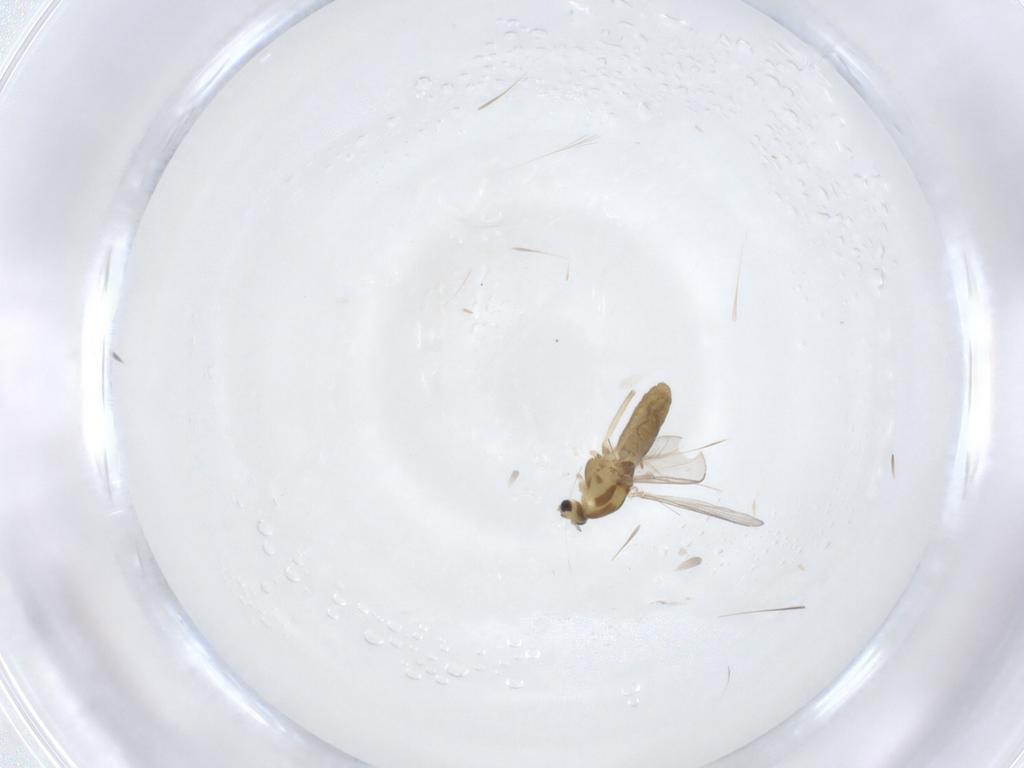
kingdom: Animalia
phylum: Arthropoda
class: Insecta
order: Diptera
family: Chironomidae
